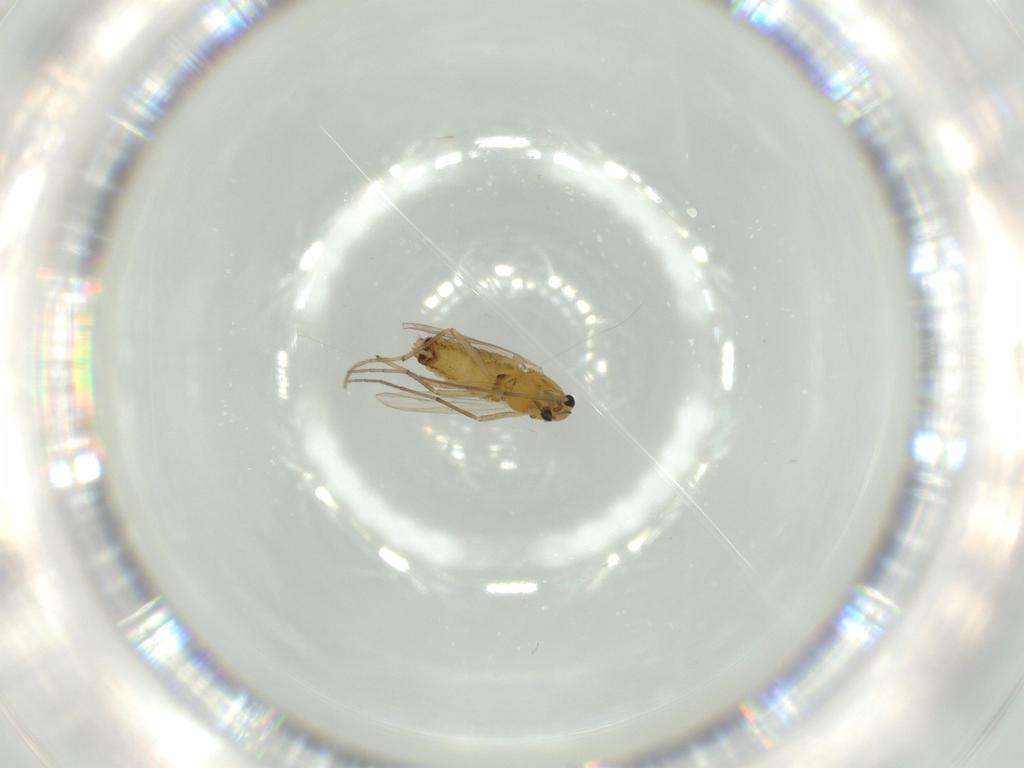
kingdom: Animalia
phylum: Arthropoda
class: Insecta
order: Diptera
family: Chironomidae
